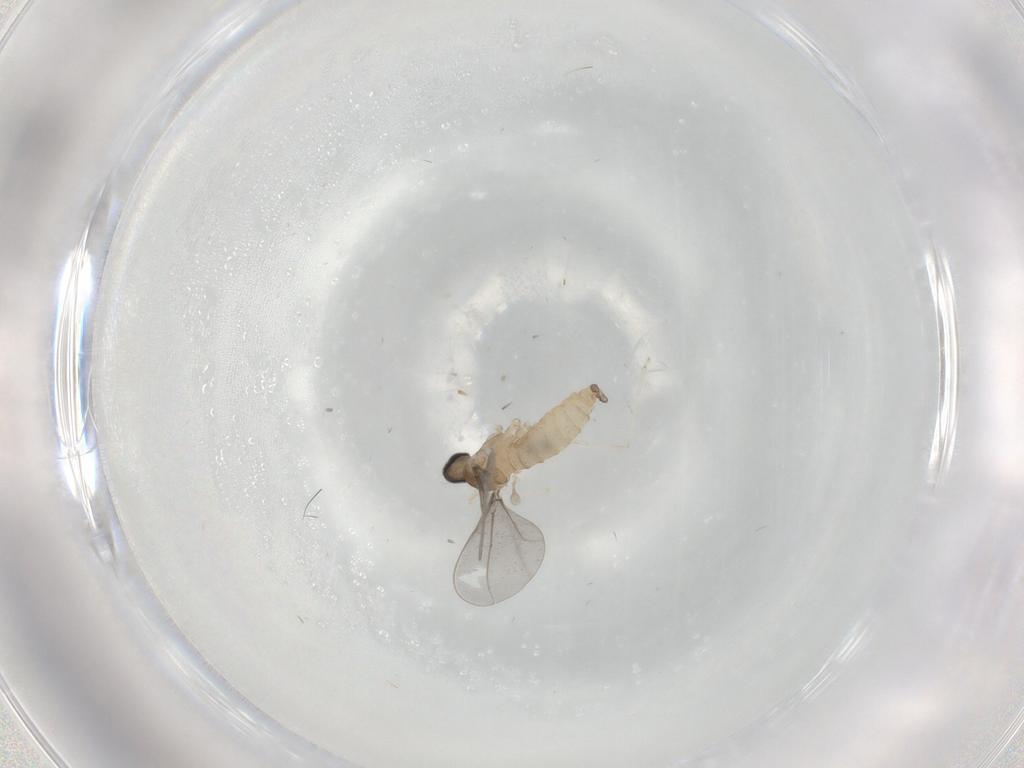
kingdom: Animalia
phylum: Arthropoda
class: Insecta
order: Diptera
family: Cecidomyiidae
